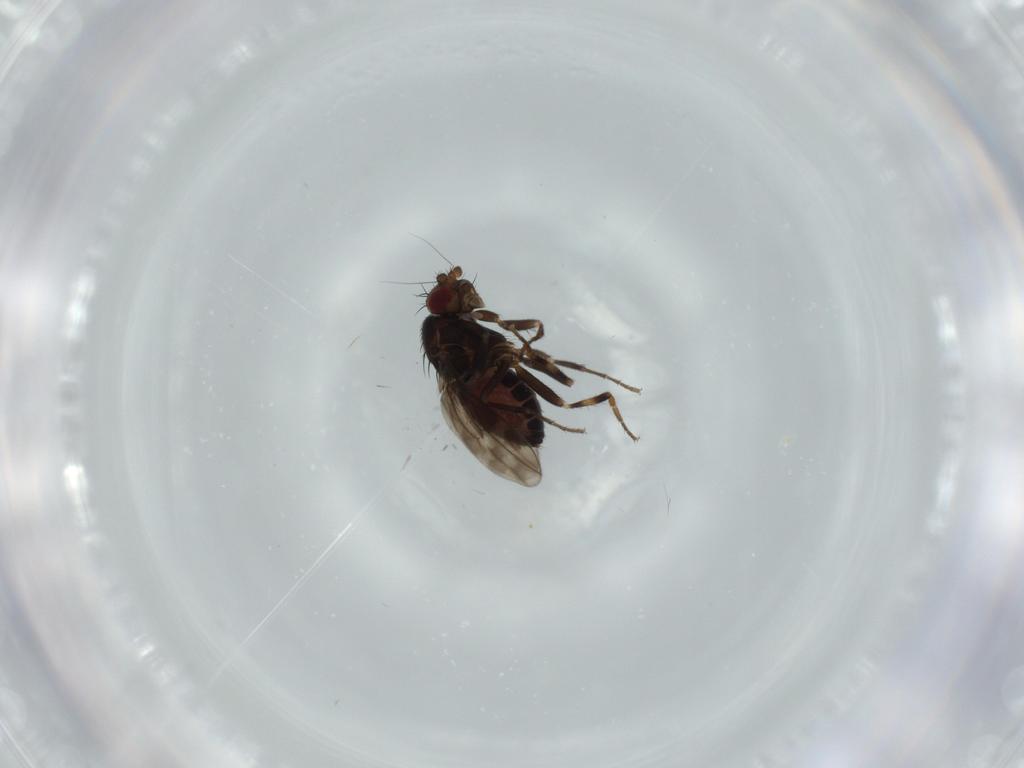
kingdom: Animalia
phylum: Arthropoda
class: Insecta
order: Diptera
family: Sphaeroceridae
